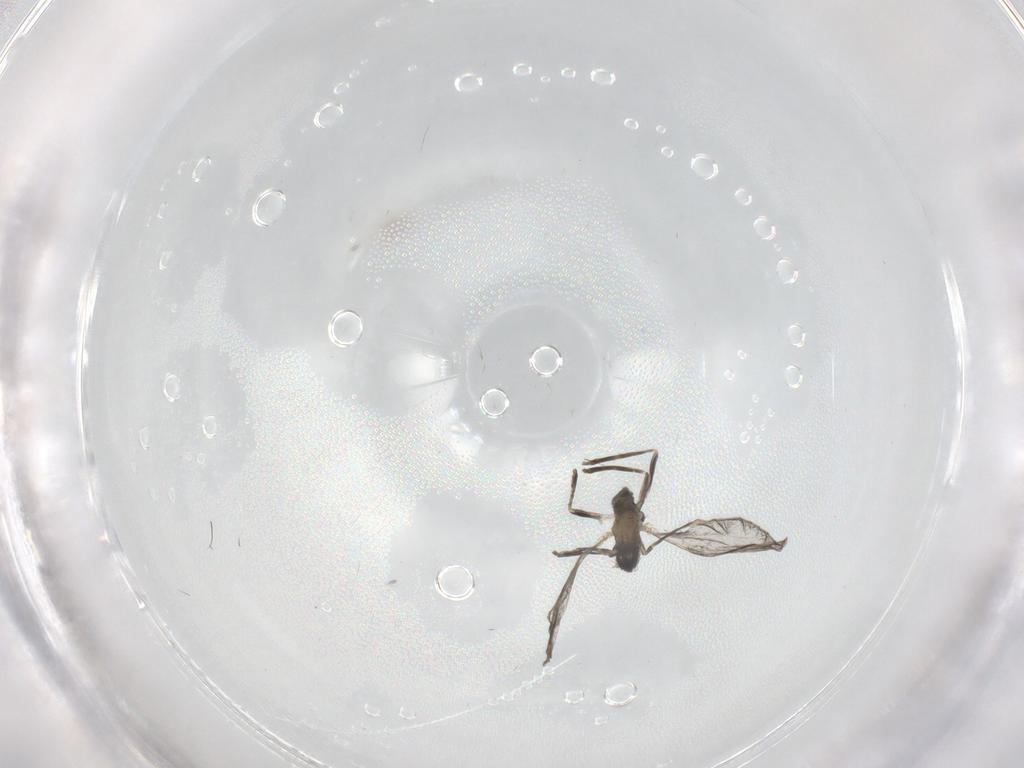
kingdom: Animalia
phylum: Arthropoda
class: Insecta
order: Diptera
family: Cecidomyiidae
